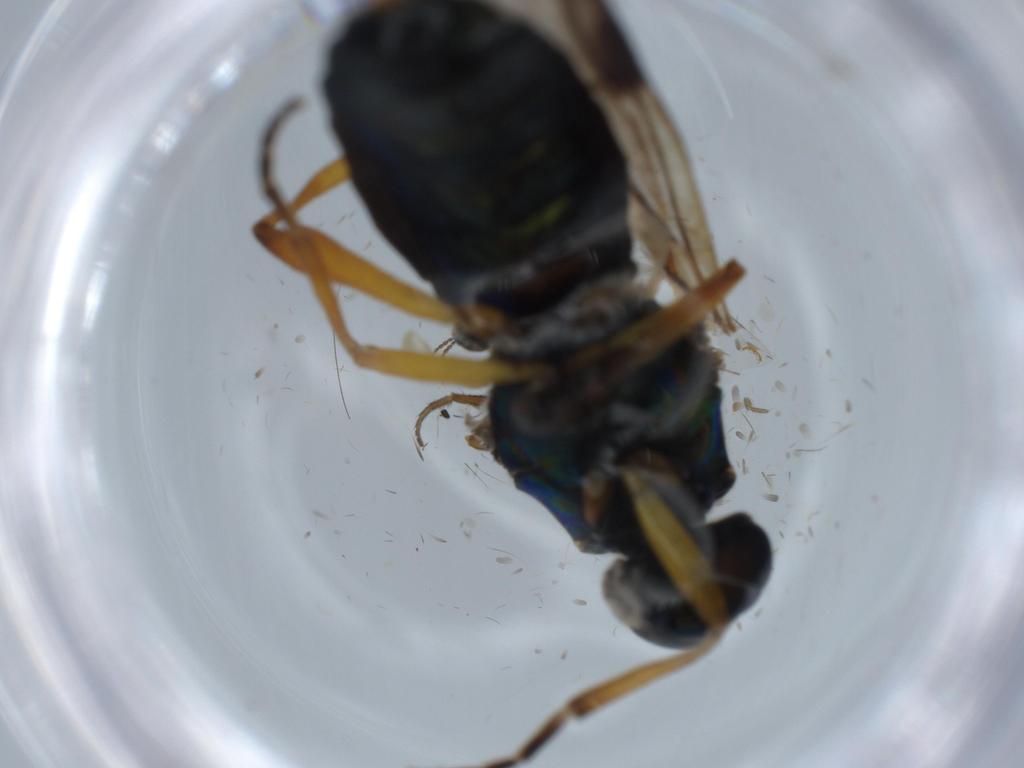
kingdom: Animalia
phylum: Arthropoda
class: Insecta
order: Diptera
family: Stratiomyidae
